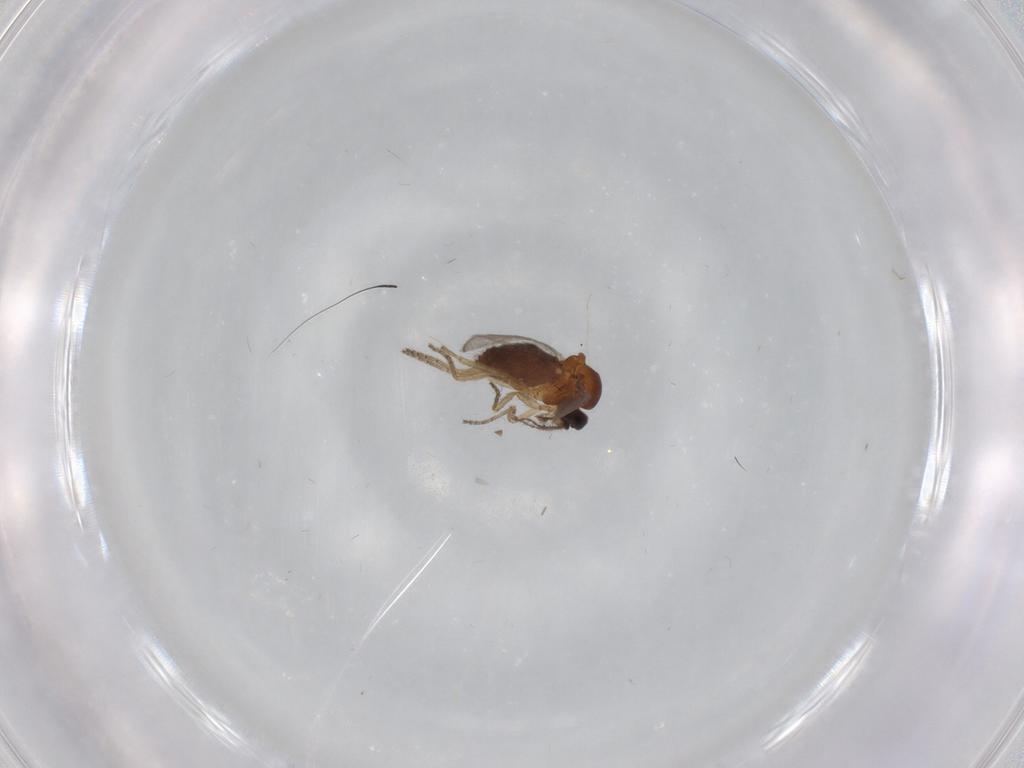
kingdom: Animalia
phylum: Arthropoda
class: Insecta
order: Diptera
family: Ceratopogonidae
